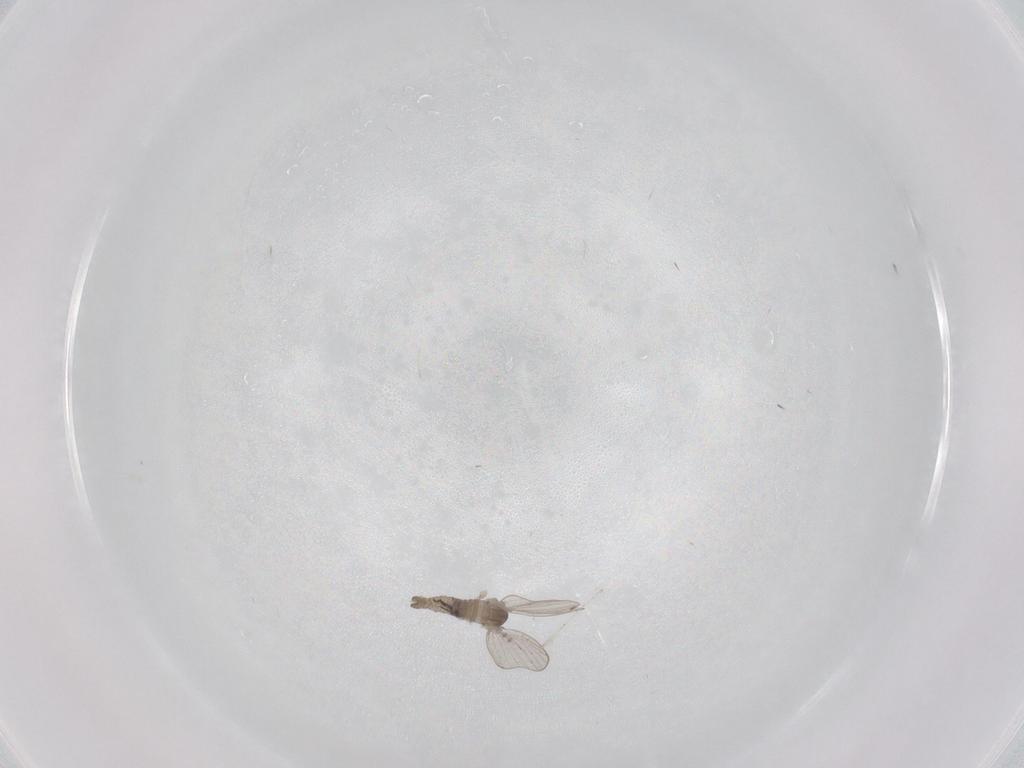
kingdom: Animalia
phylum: Arthropoda
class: Insecta
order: Diptera
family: Psychodidae
